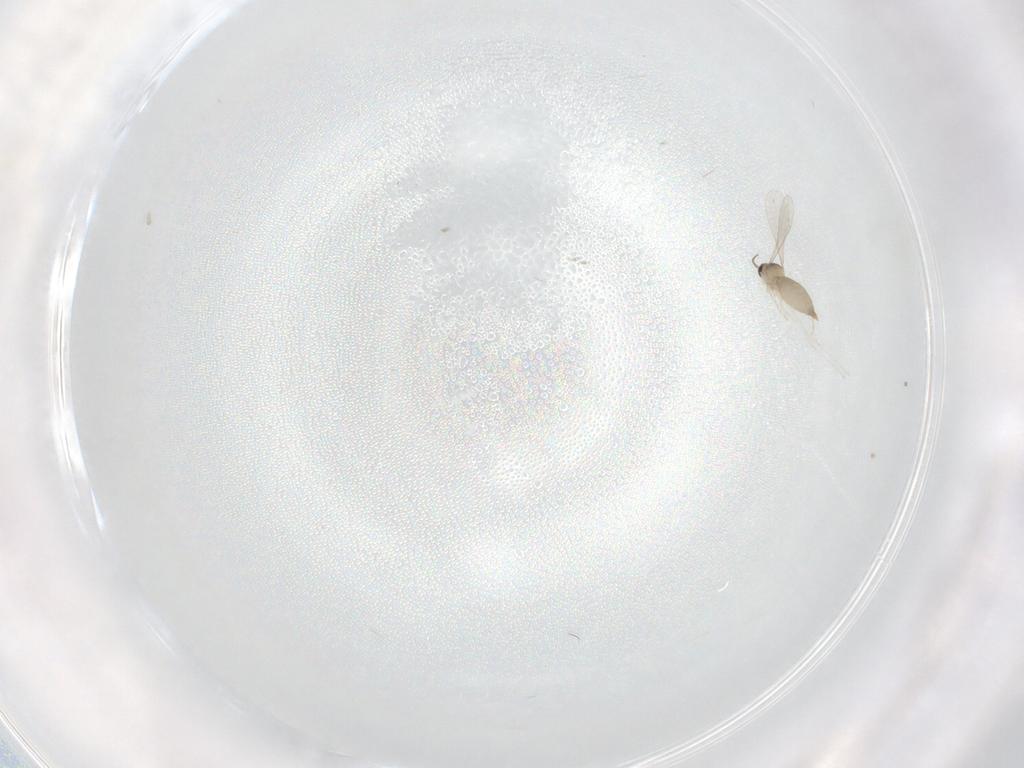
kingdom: Animalia
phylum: Arthropoda
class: Insecta
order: Diptera
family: Cecidomyiidae
